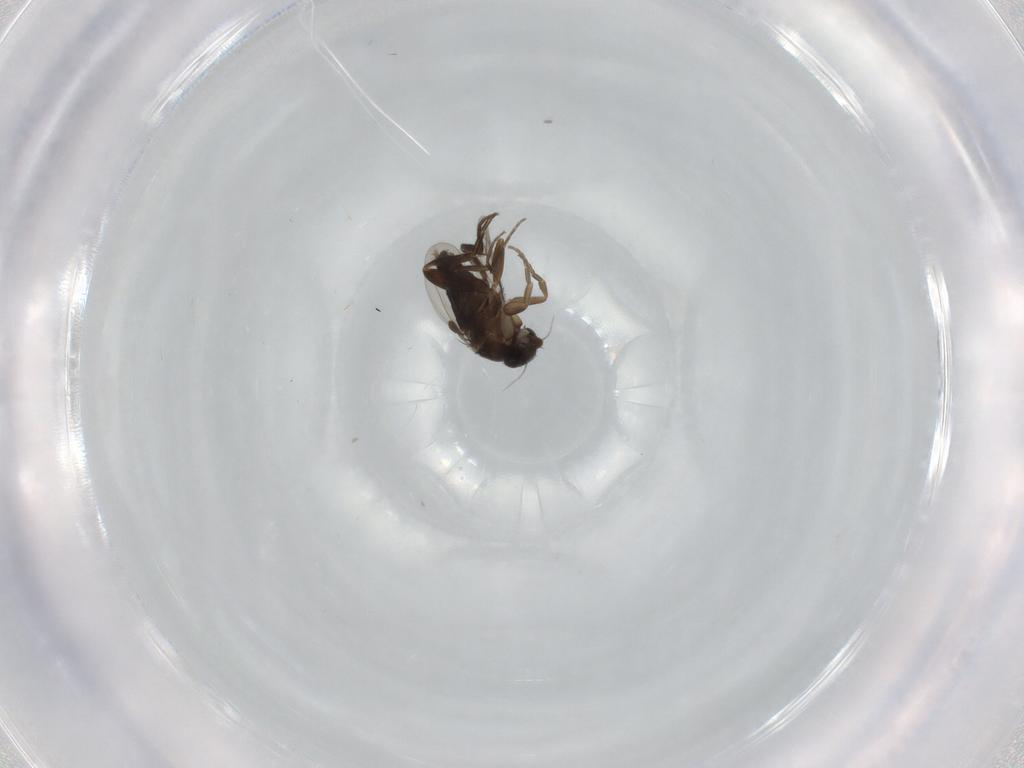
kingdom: Animalia
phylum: Arthropoda
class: Insecta
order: Diptera
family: Phoridae
